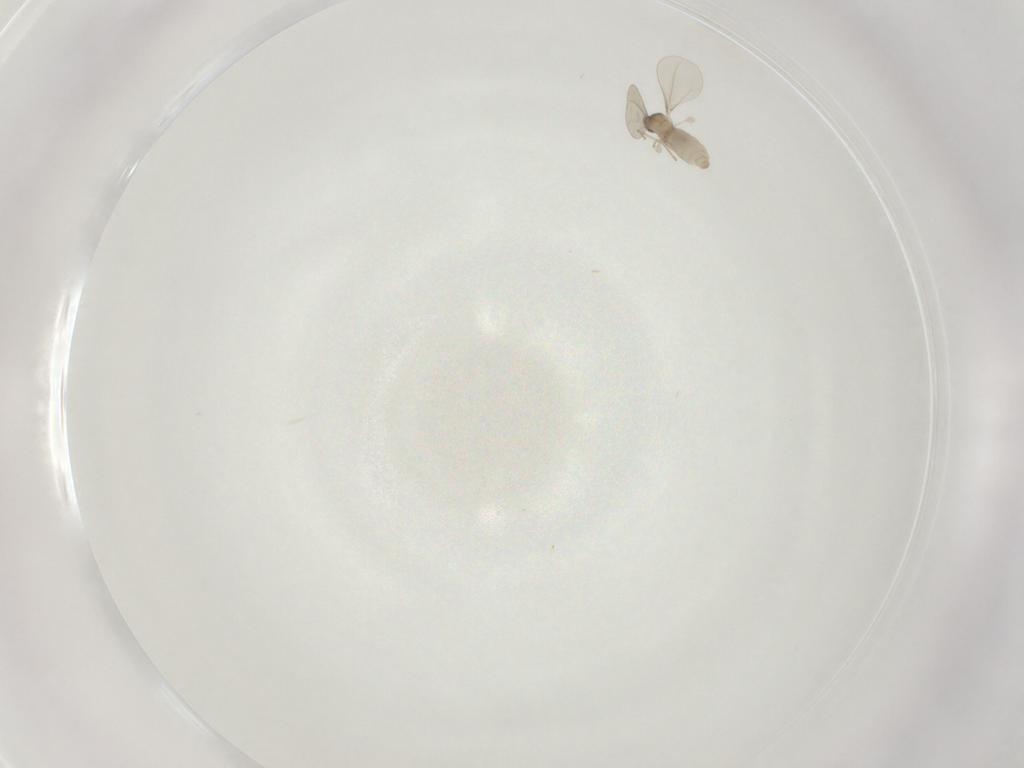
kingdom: Animalia
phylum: Arthropoda
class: Insecta
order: Diptera
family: Cecidomyiidae
